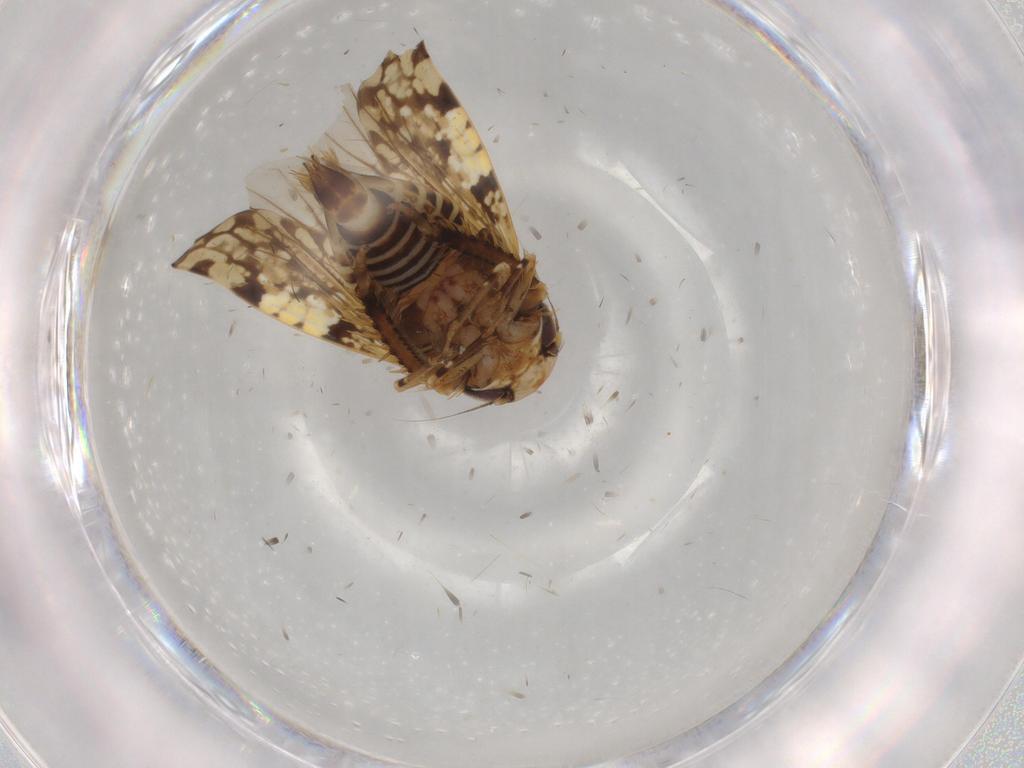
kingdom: Animalia
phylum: Arthropoda
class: Insecta
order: Hemiptera
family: Cicadellidae
